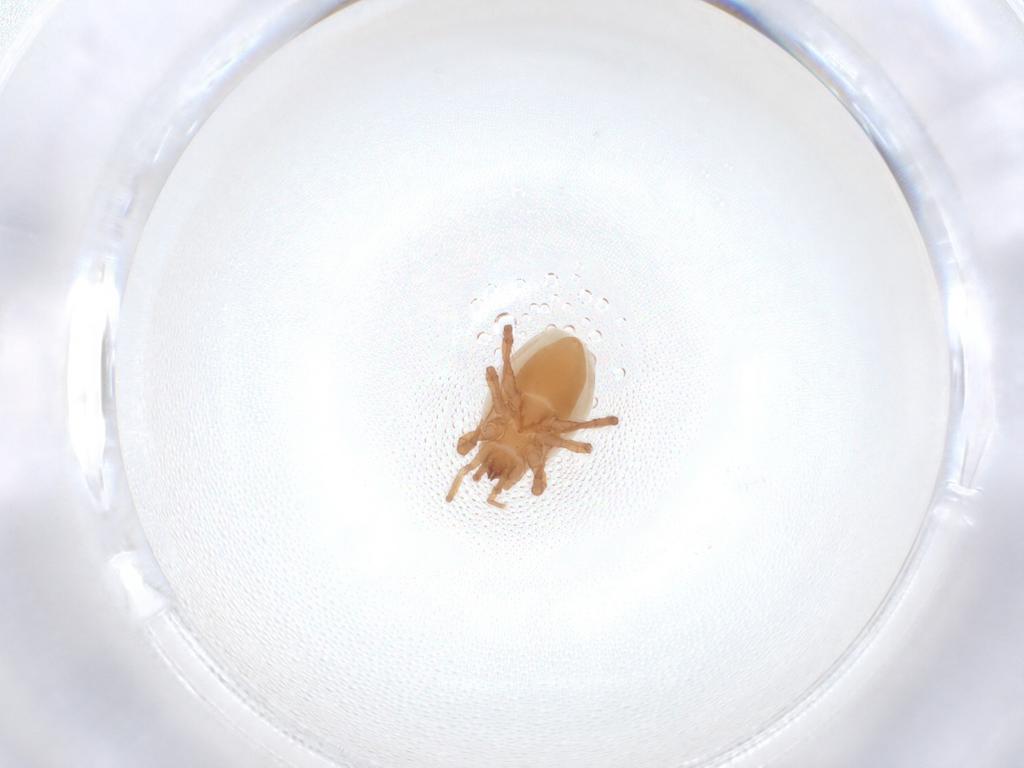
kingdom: Animalia
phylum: Arthropoda
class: Arachnida
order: Mesostigmata
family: Parasitidae
